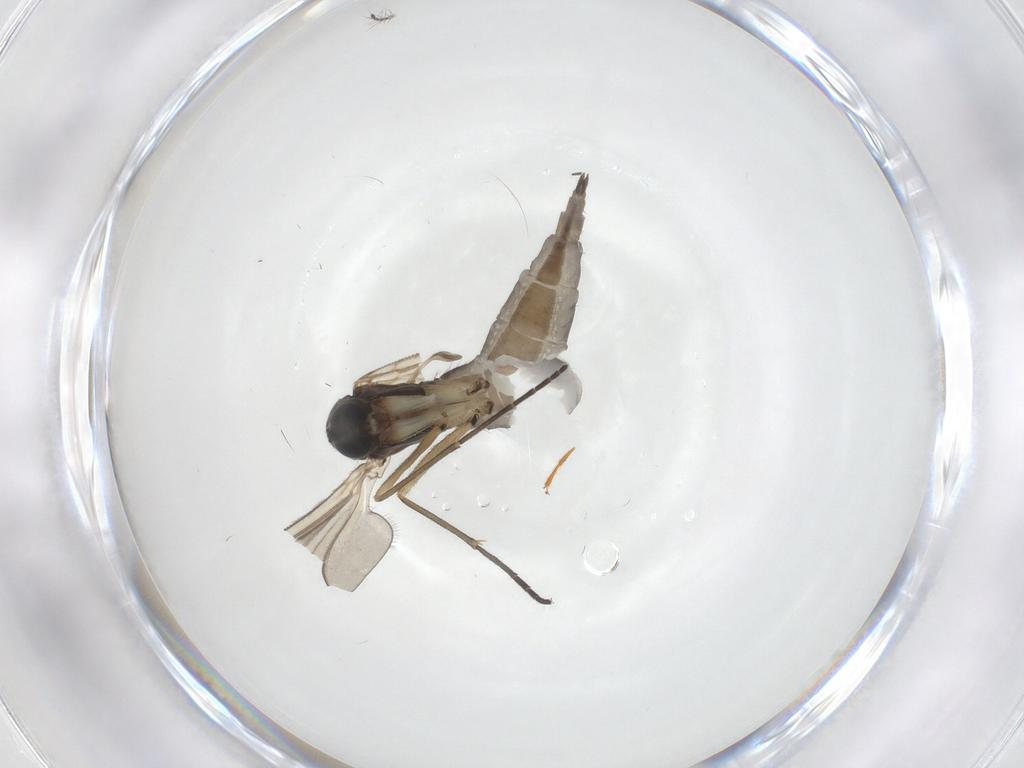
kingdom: Animalia
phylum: Arthropoda
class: Insecta
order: Diptera
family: Sciaridae
